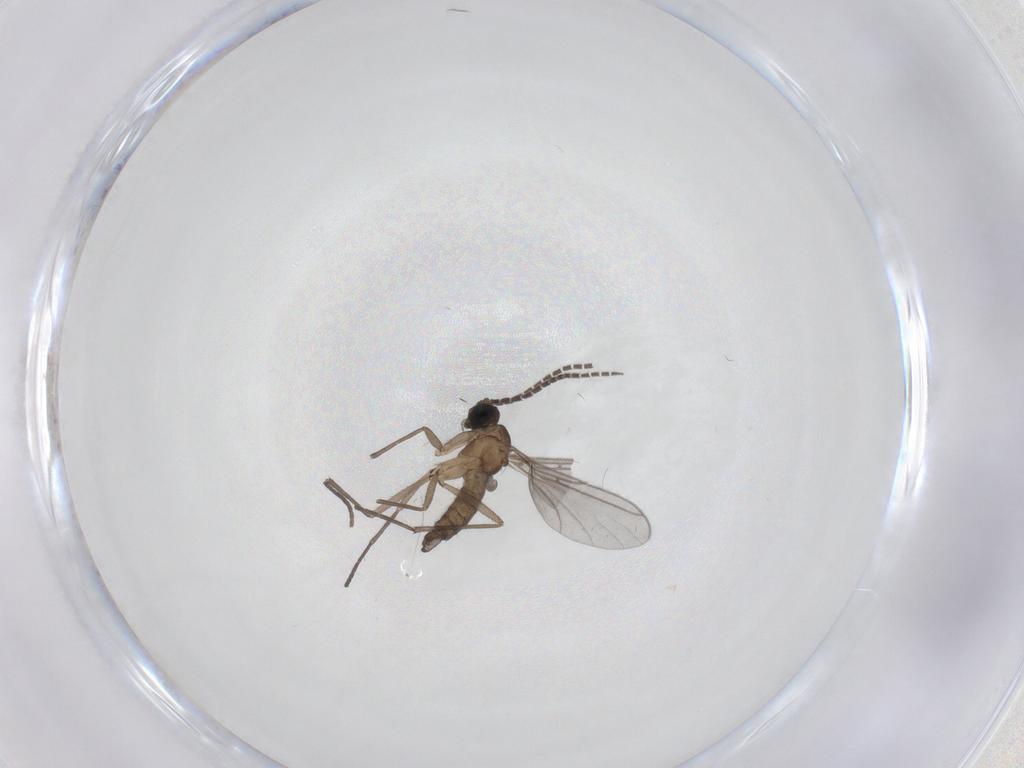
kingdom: Animalia
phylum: Arthropoda
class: Insecta
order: Diptera
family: Sciaridae
